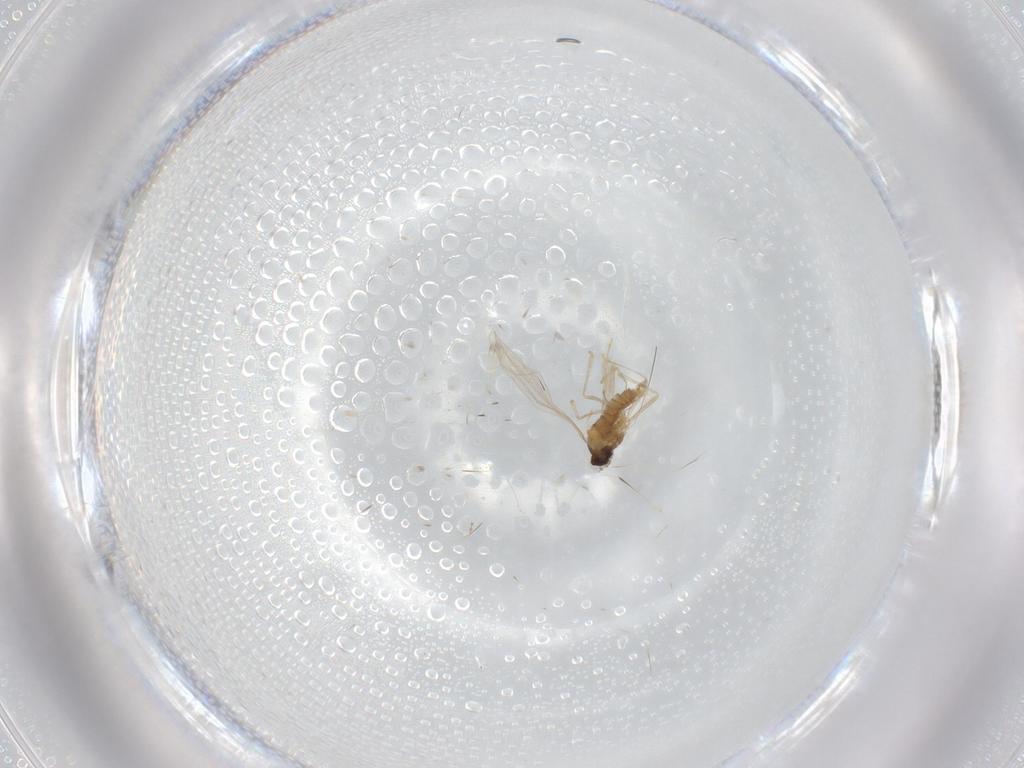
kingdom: Animalia
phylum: Arthropoda
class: Insecta
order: Diptera
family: Cecidomyiidae
